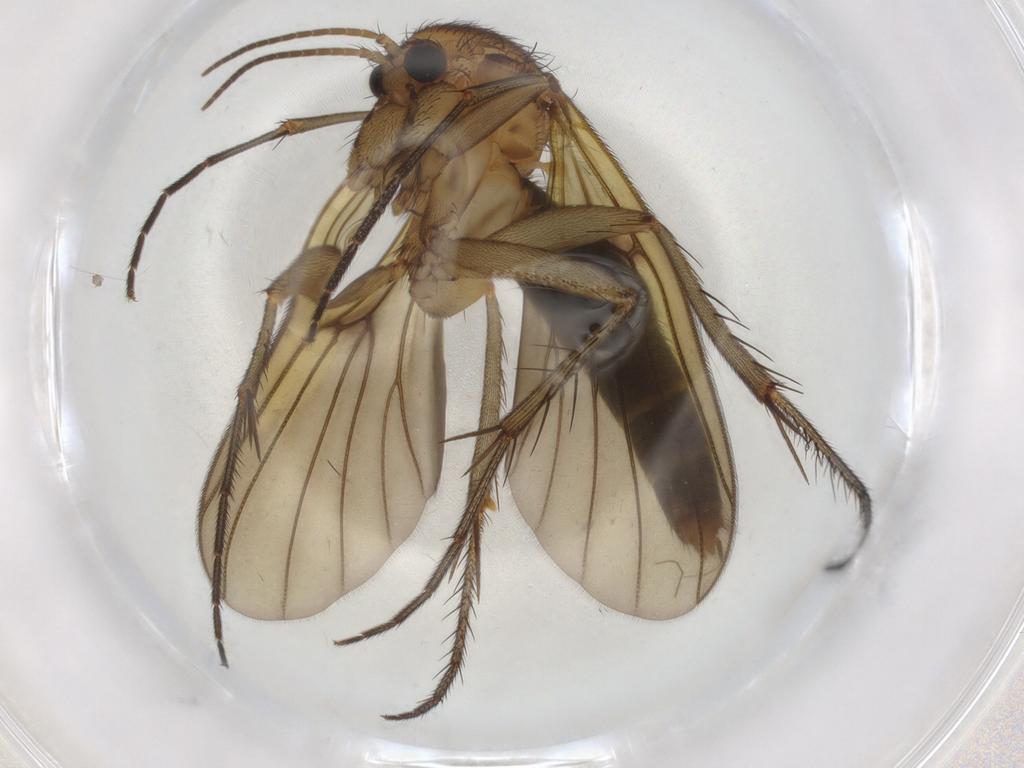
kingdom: Animalia
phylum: Arthropoda
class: Insecta
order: Diptera
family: Mycetophilidae
